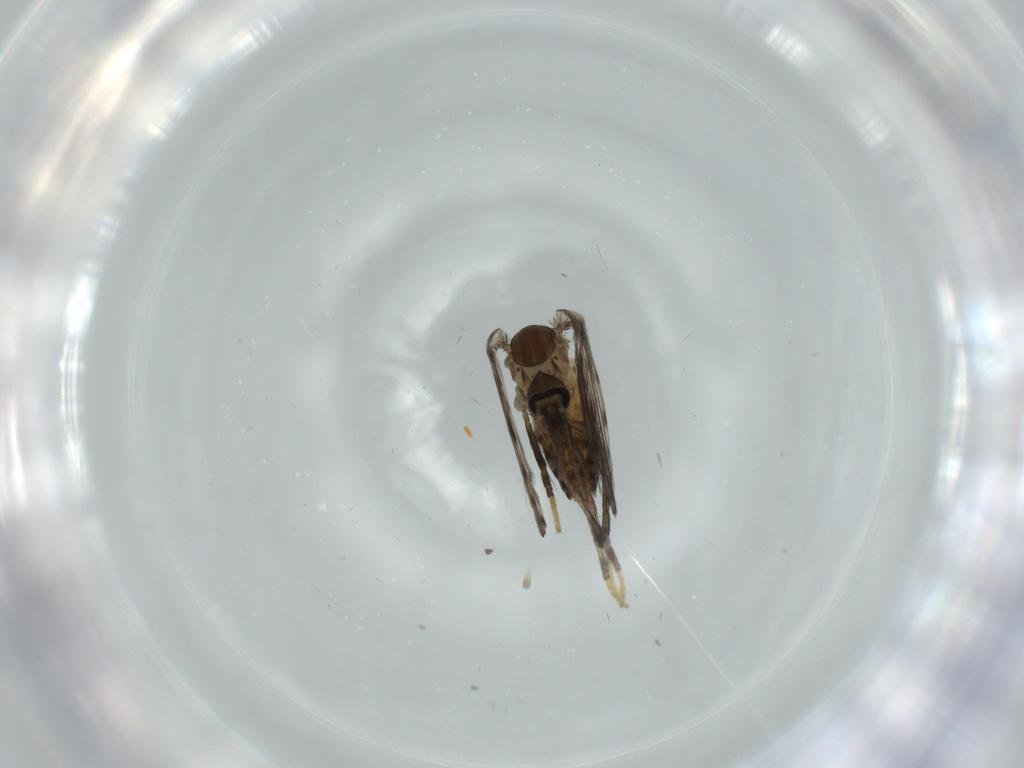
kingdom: Animalia
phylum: Arthropoda
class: Insecta
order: Diptera
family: Psychodidae
